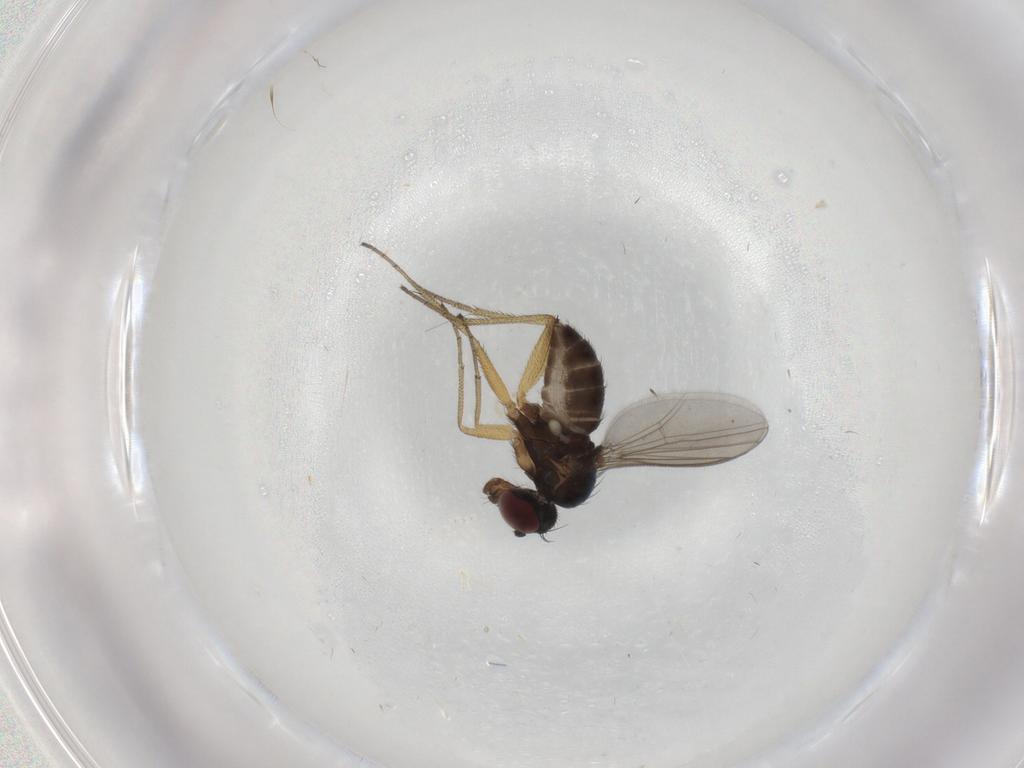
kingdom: Animalia
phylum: Arthropoda
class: Insecta
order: Diptera
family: Dolichopodidae
